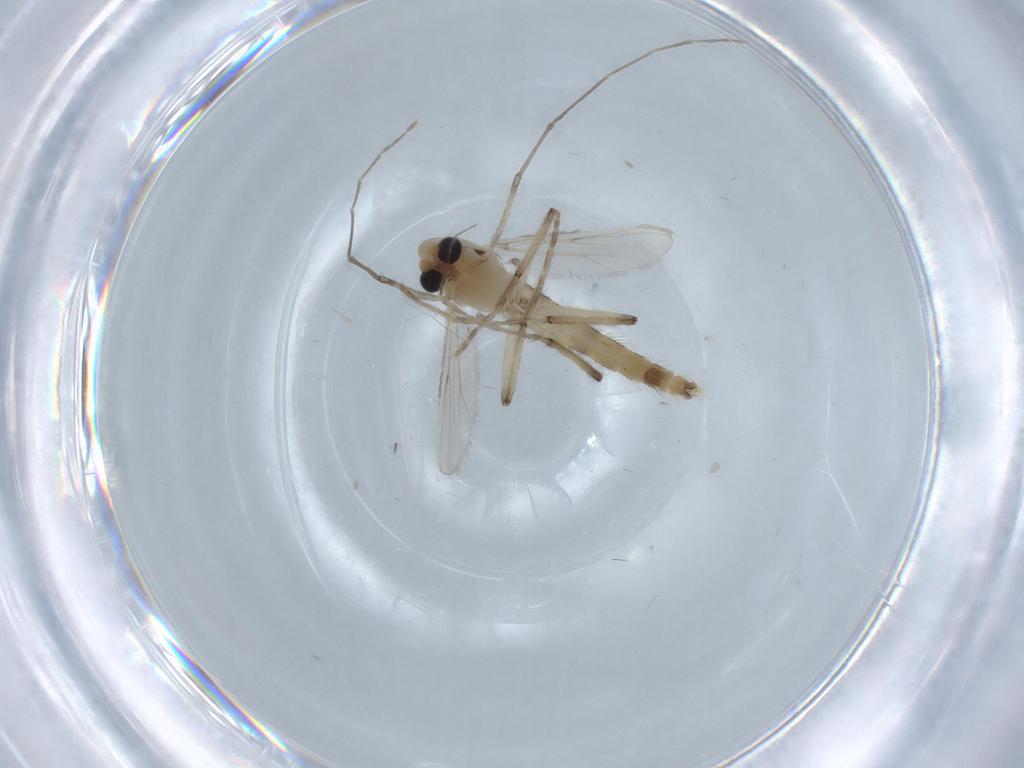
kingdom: Animalia
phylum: Arthropoda
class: Insecta
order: Diptera
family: Chironomidae
